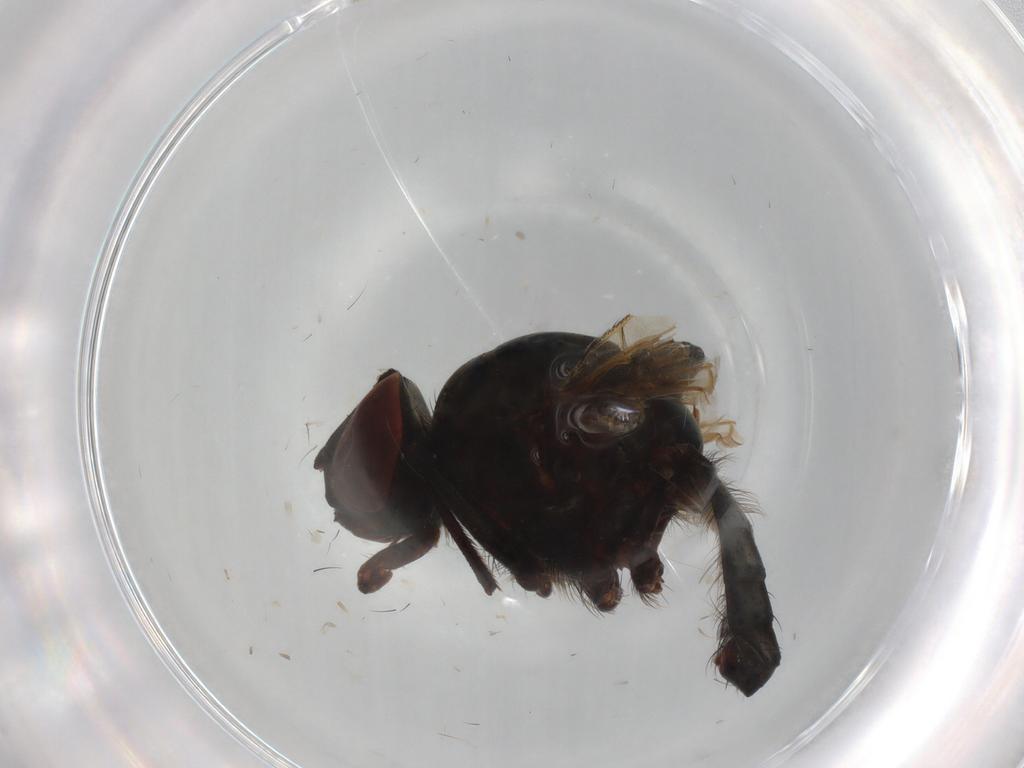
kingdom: Animalia
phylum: Arthropoda
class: Insecta
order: Diptera
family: Anthomyiidae
